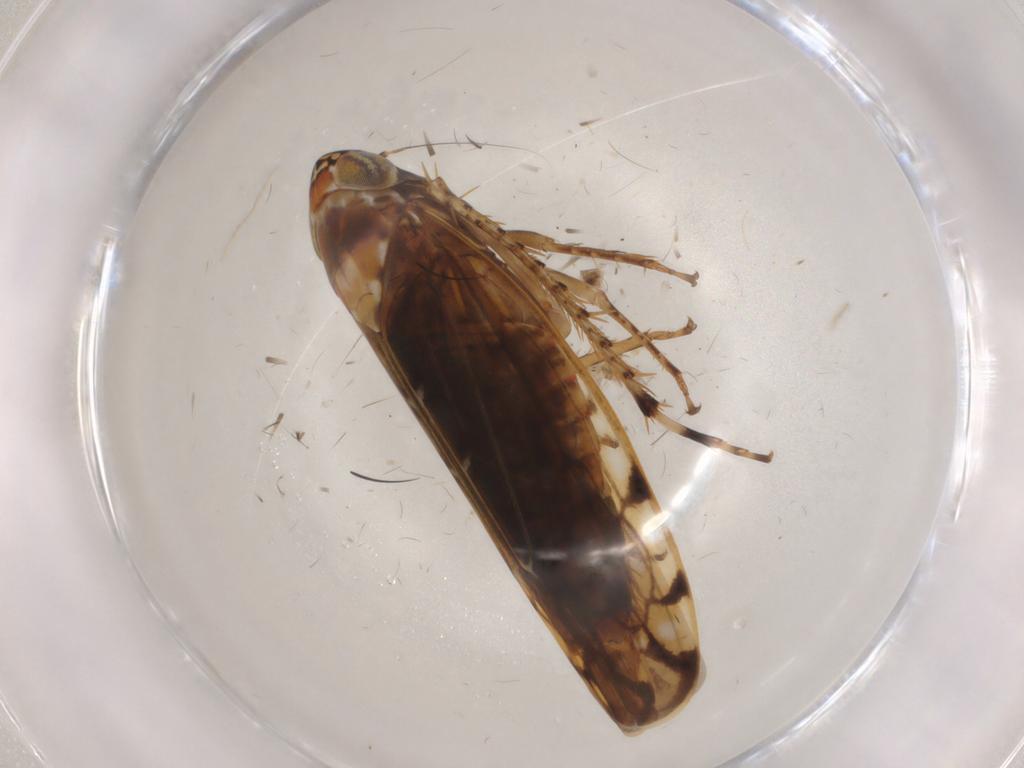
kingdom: Animalia
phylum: Arthropoda
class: Insecta
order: Hemiptera
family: Cicadellidae
